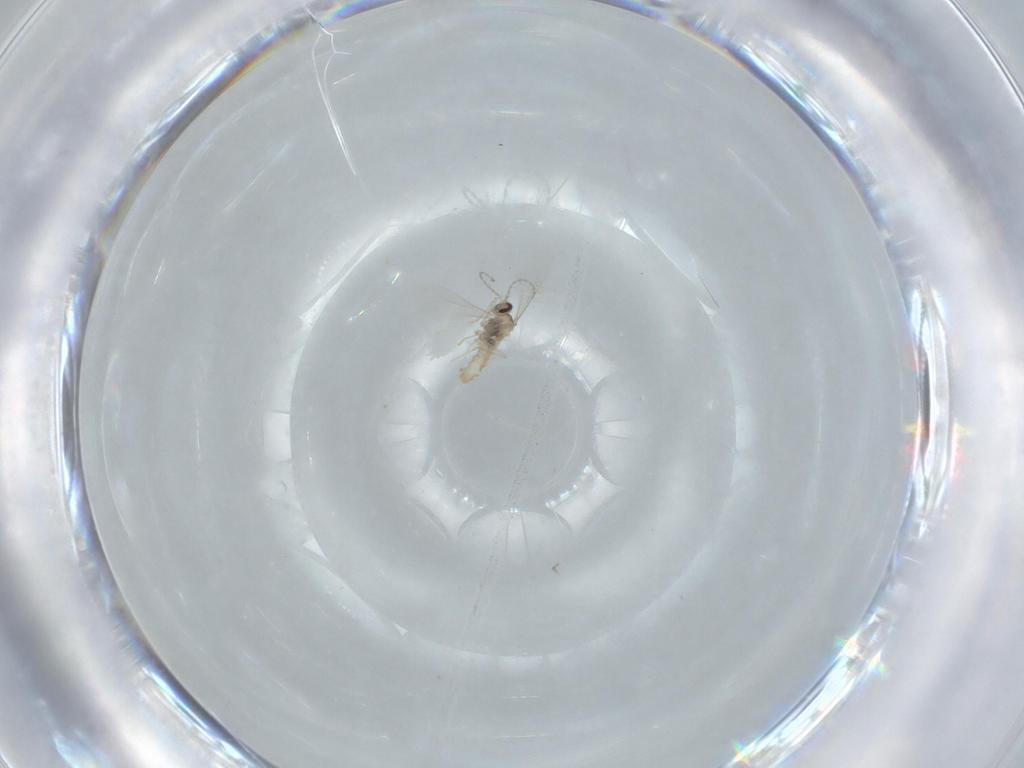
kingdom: Animalia
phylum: Arthropoda
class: Insecta
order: Diptera
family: Cecidomyiidae
